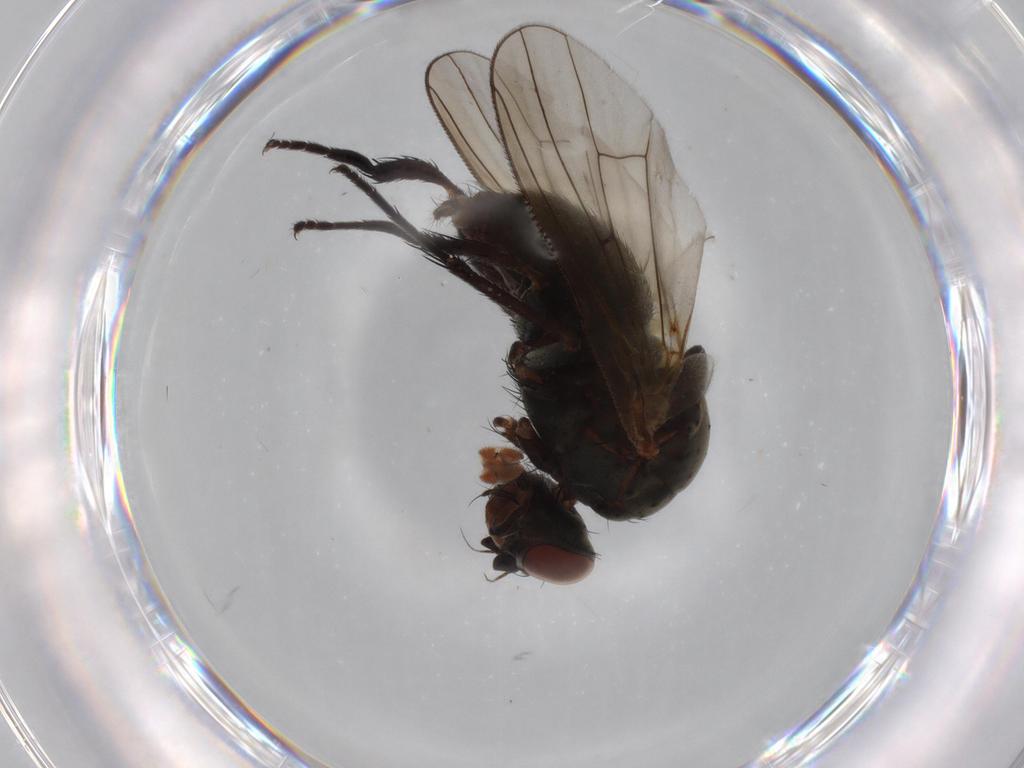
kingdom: Animalia
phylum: Arthropoda
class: Insecta
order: Diptera
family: Anthomyiidae
